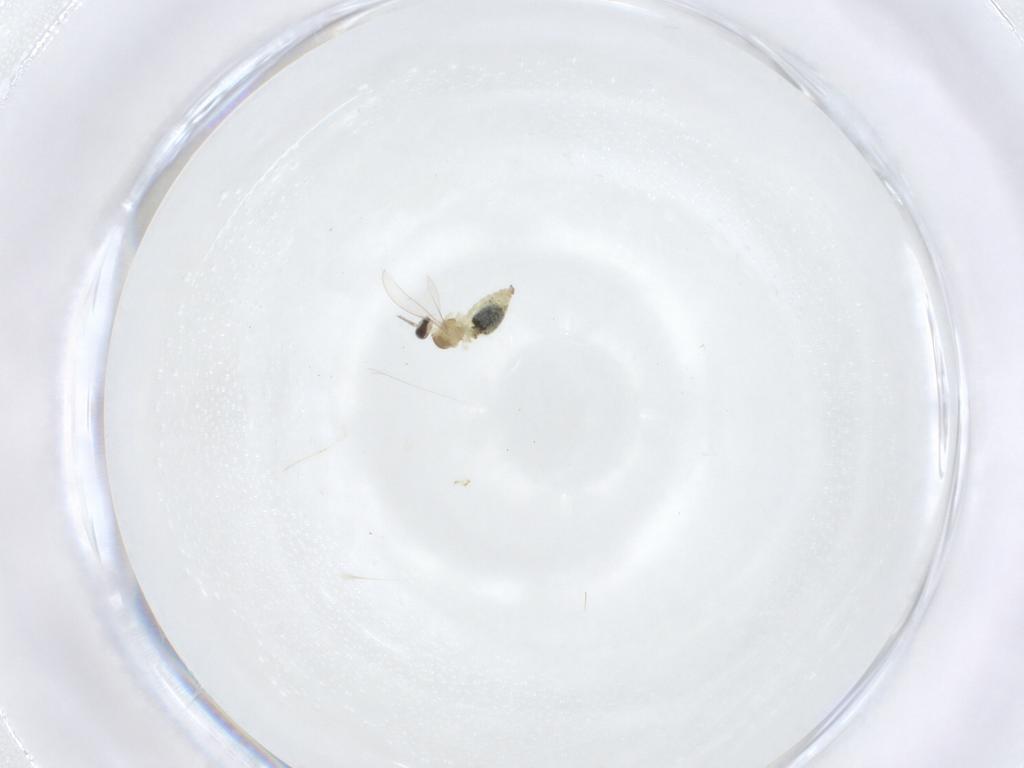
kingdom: Animalia
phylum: Arthropoda
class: Insecta
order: Diptera
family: Cecidomyiidae
